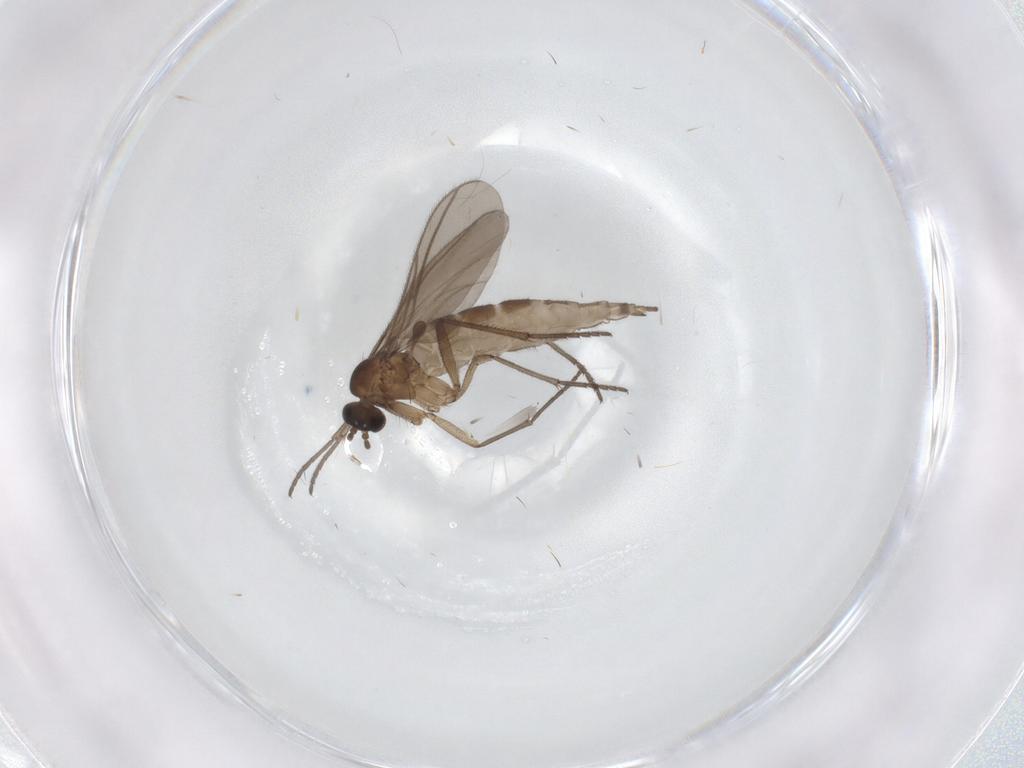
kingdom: Animalia
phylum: Arthropoda
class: Insecta
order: Diptera
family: Sciaridae
